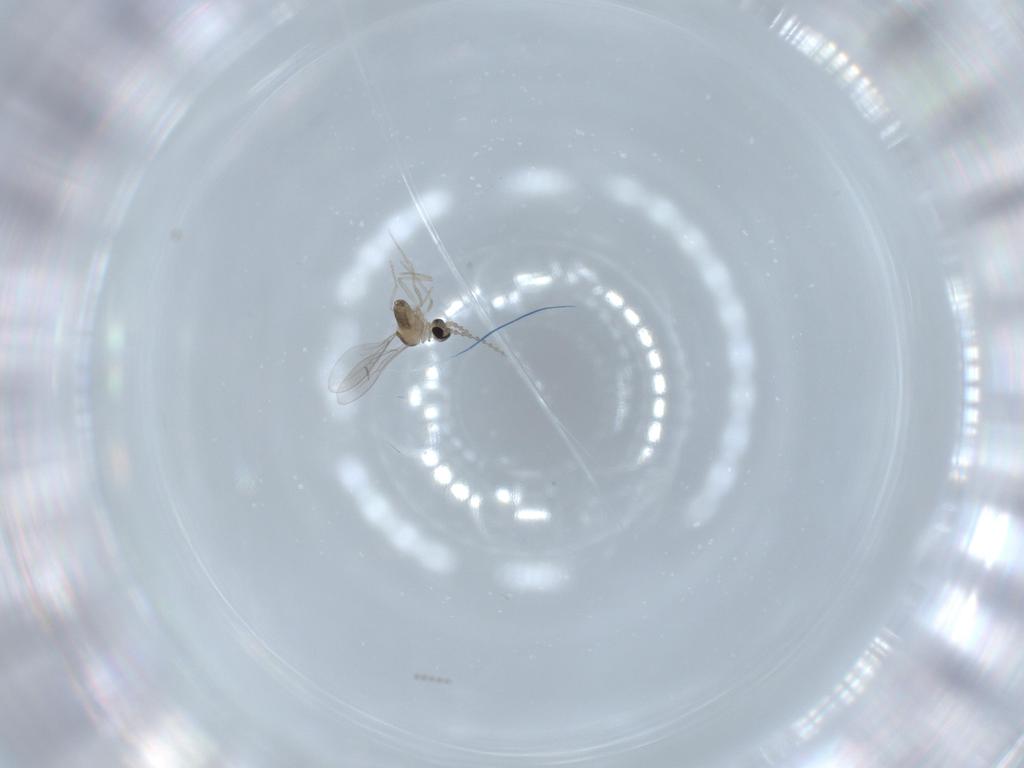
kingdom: Animalia
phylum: Arthropoda
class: Insecta
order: Diptera
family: Cecidomyiidae
